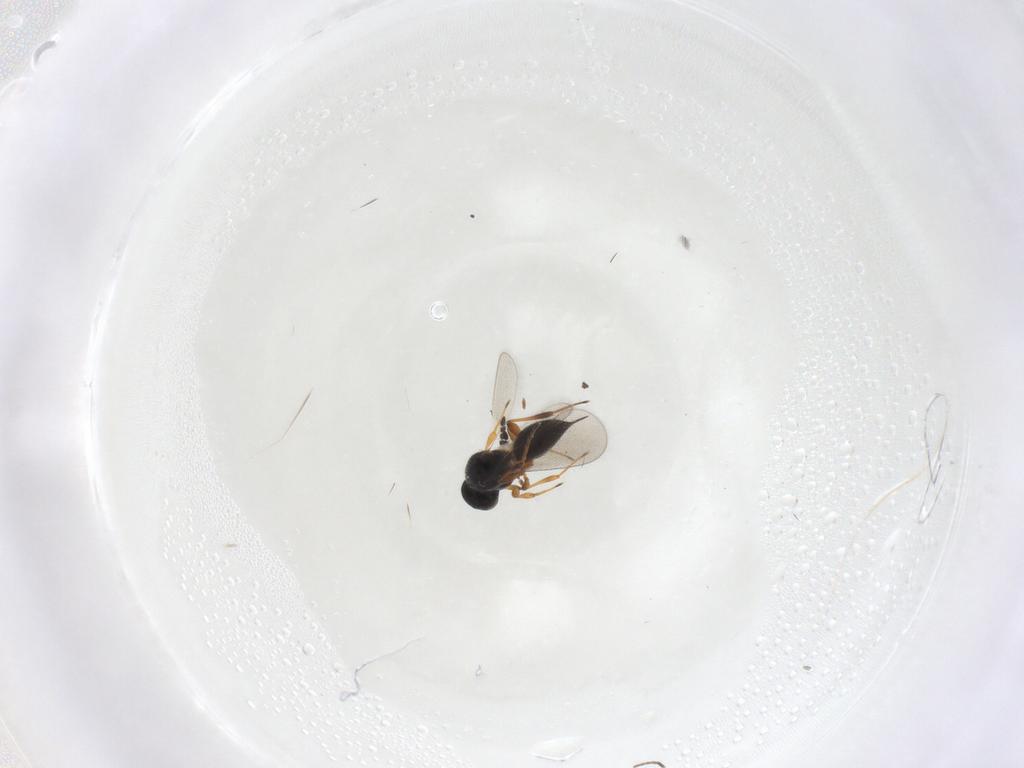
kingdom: Animalia
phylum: Arthropoda
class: Insecta
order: Hymenoptera
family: Platygastridae
